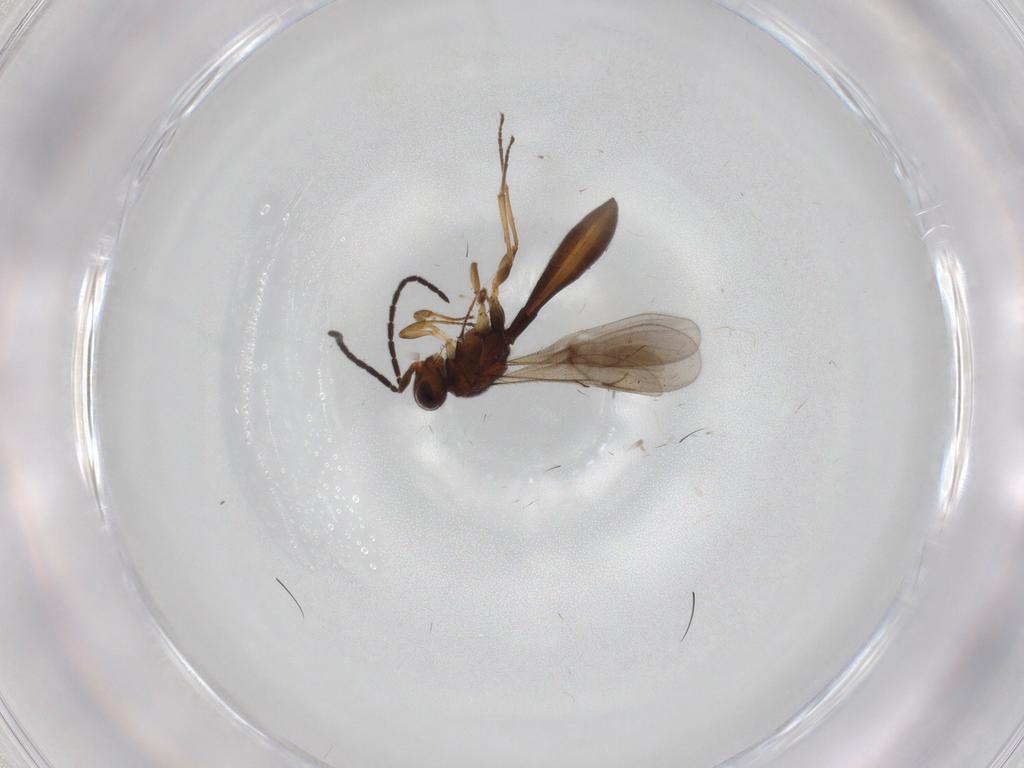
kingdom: Animalia
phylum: Arthropoda
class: Insecta
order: Hymenoptera
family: Scelionidae
